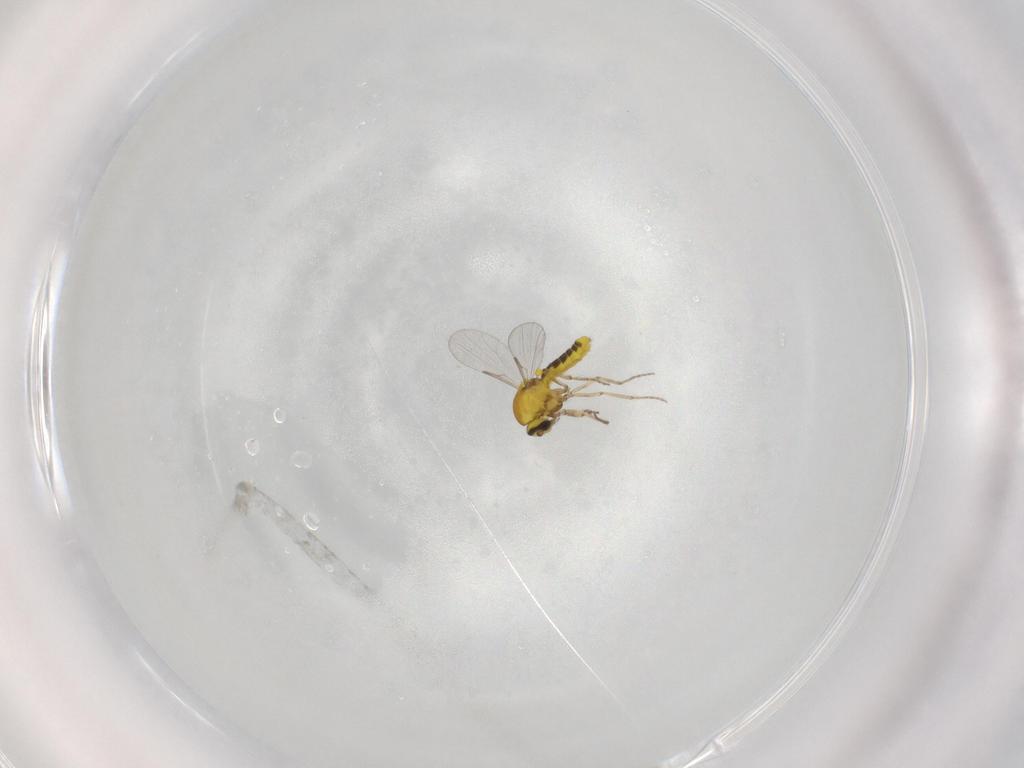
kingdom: Animalia
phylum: Arthropoda
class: Insecta
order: Diptera
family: Ceratopogonidae
